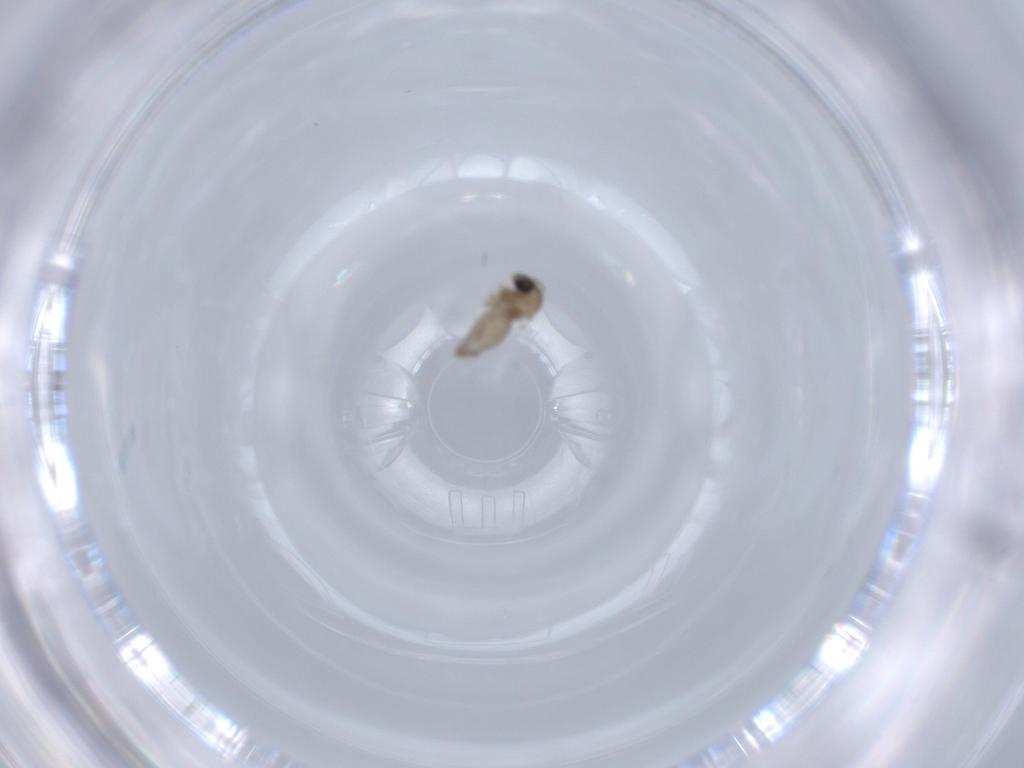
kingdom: Animalia
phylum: Arthropoda
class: Insecta
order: Diptera
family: Cecidomyiidae
